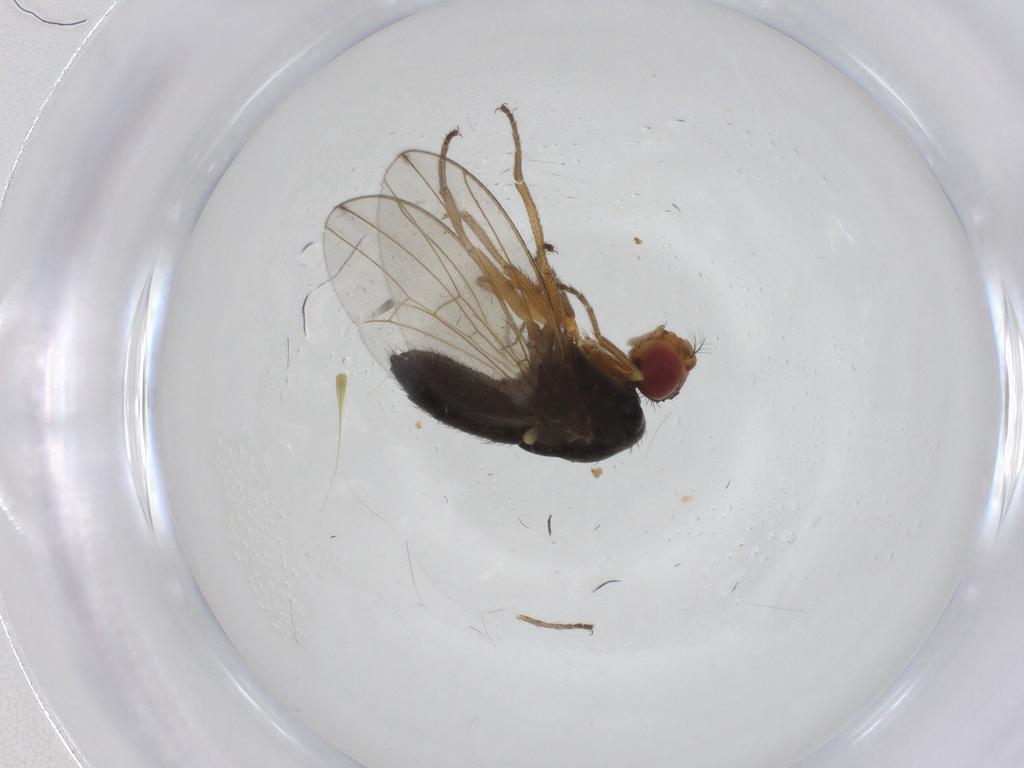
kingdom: Animalia
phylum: Arthropoda
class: Insecta
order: Diptera
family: Drosophilidae
